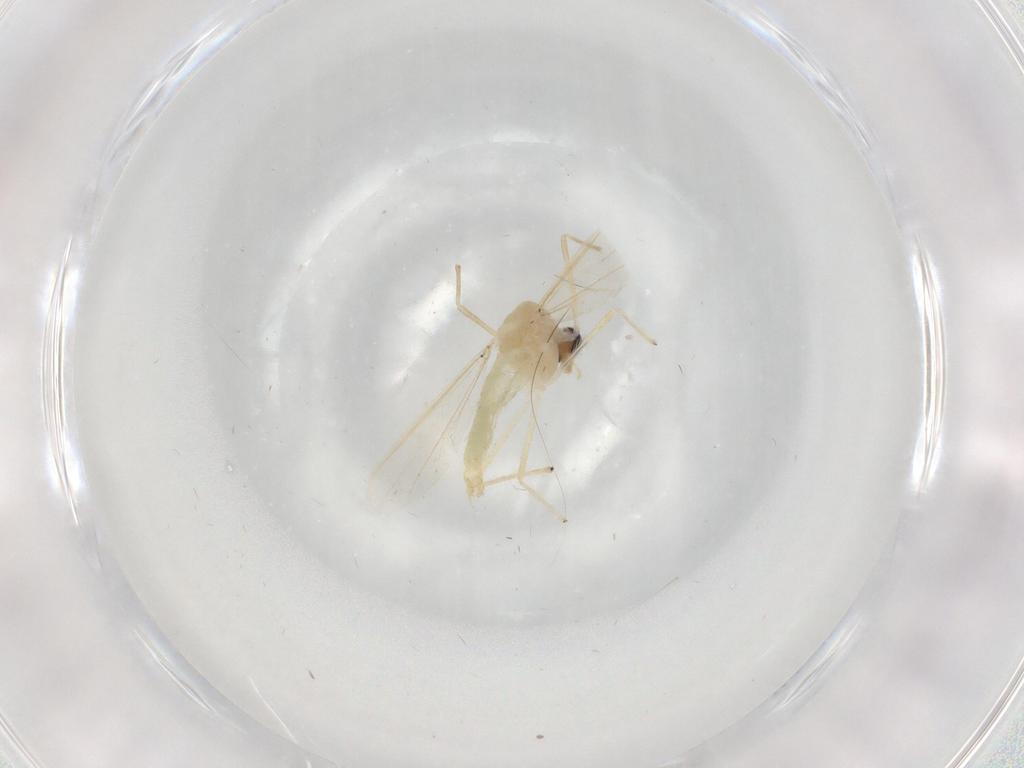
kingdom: Animalia
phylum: Arthropoda
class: Insecta
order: Diptera
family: Chironomidae
